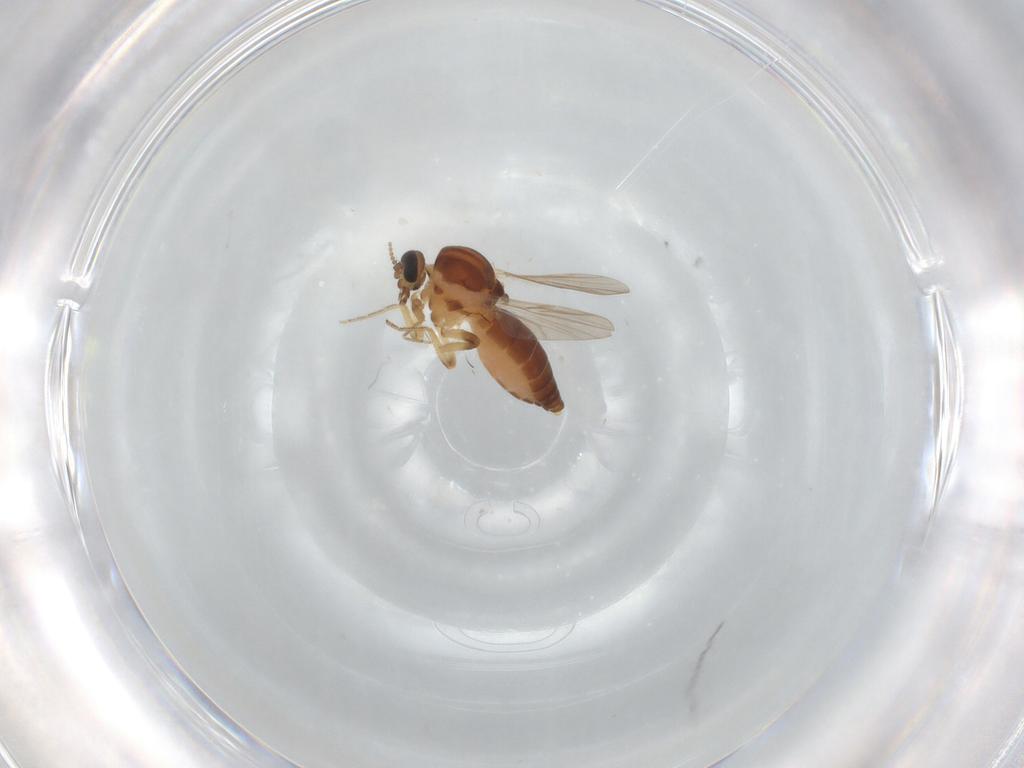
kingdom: Animalia
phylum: Arthropoda
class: Insecta
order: Diptera
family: Ceratopogonidae
